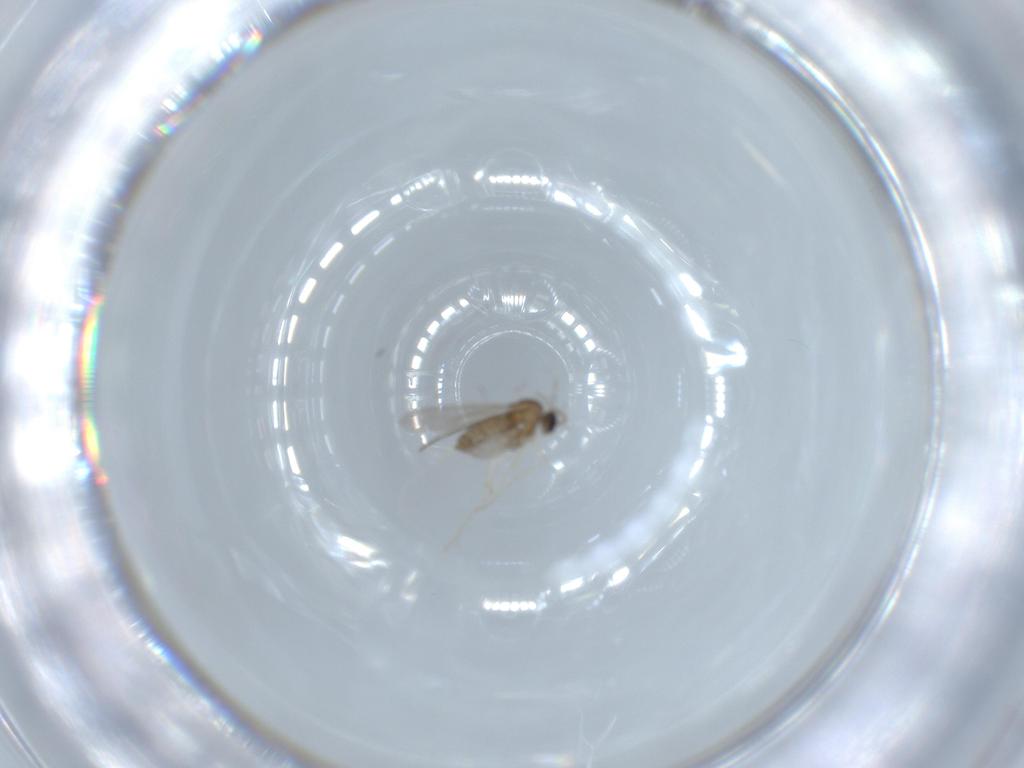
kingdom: Animalia
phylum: Arthropoda
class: Insecta
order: Diptera
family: Cecidomyiidae
